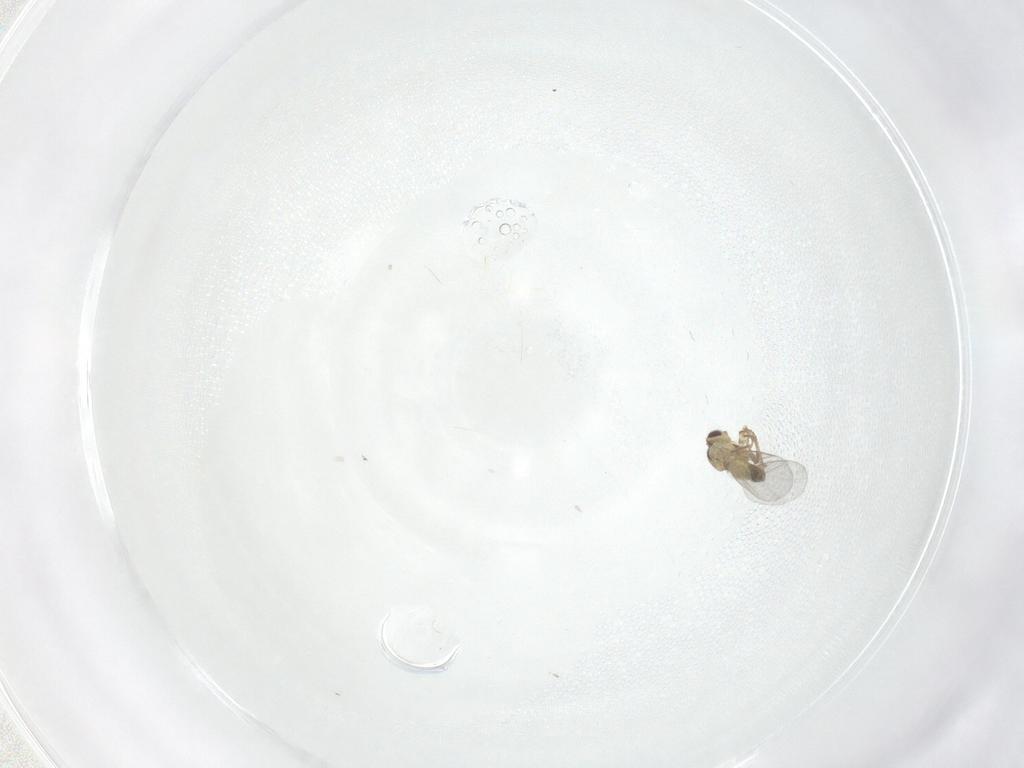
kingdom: Animalia
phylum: Arthropoda
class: Insecta
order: Diptera
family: Agromyzidae
